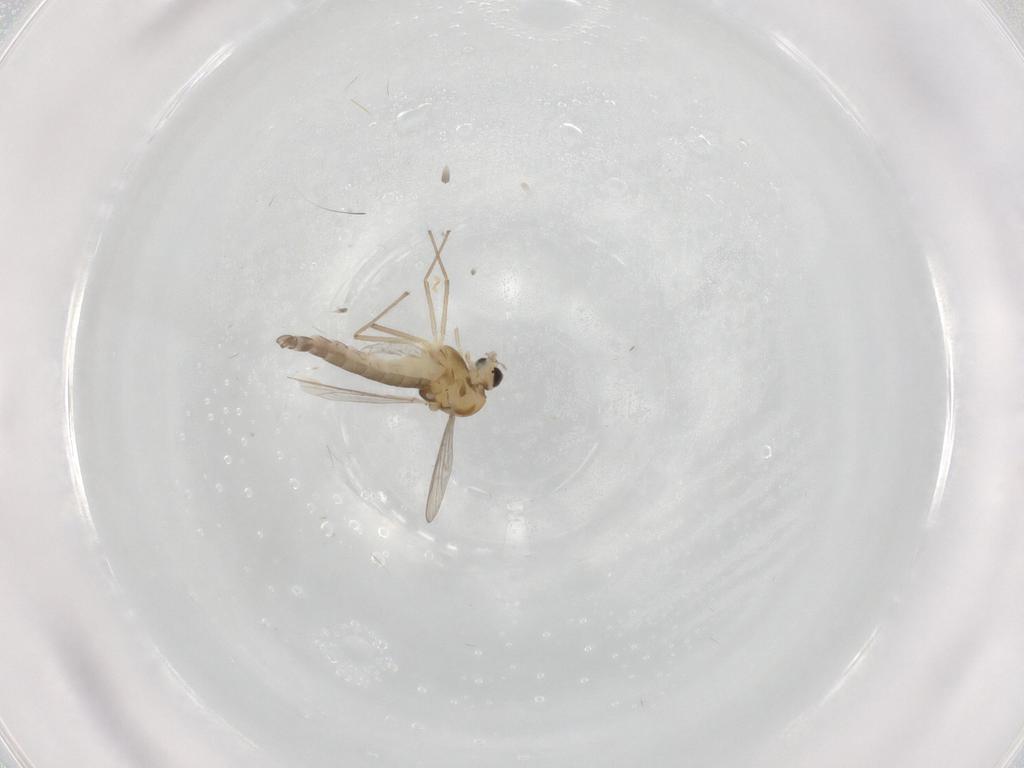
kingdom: Animalia
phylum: Arthropoda
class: Insecta
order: Diptera
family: Chironomidae
